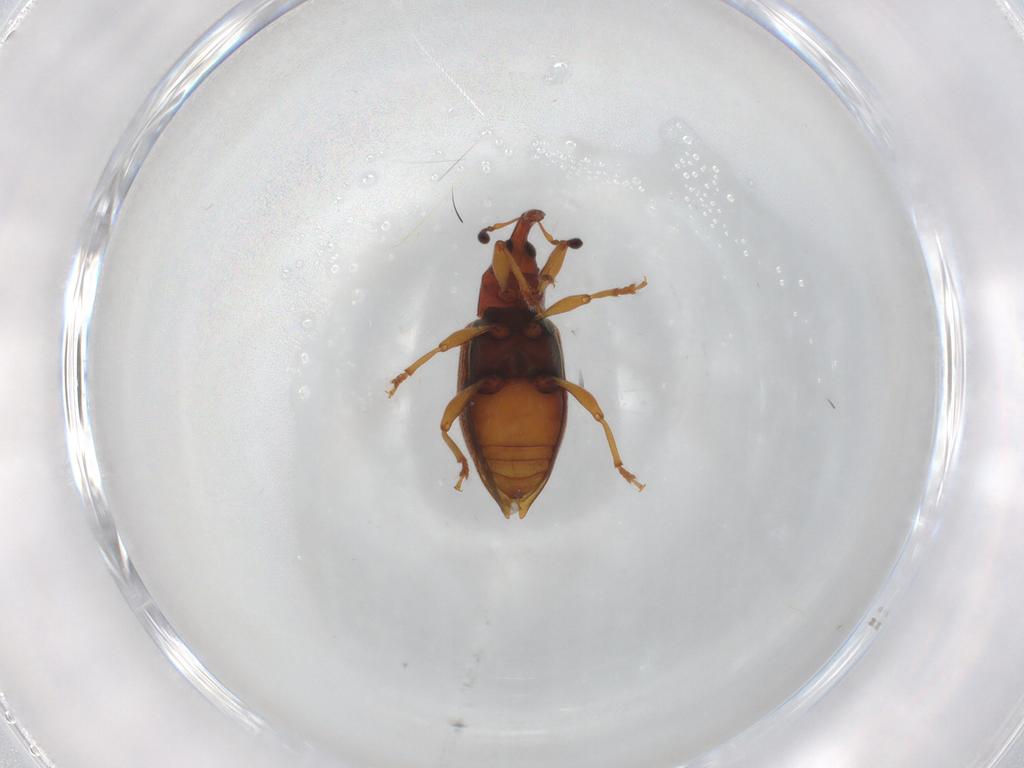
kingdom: Animalia
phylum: Arthropoda
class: Insecta
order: Coleoptera
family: Curculionidae
